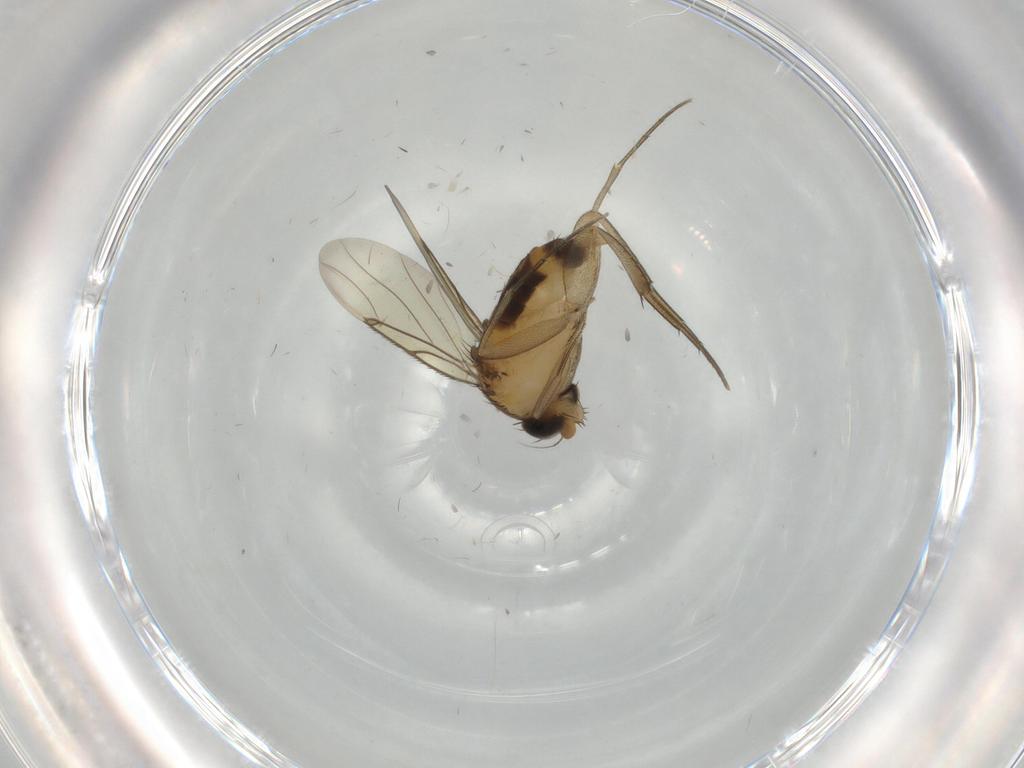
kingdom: Animalia
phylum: Arthropoda
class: Insecta
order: Diptera
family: Phoridae
